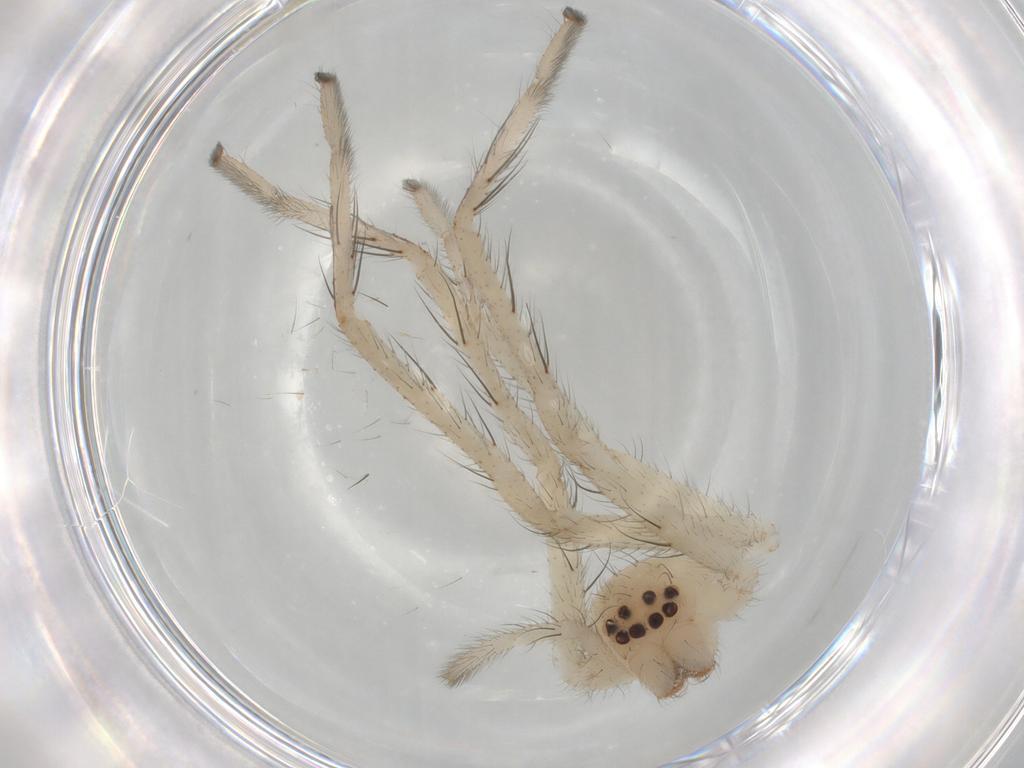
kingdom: Animalia
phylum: Arthropoda
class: Arachnida
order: Araneae
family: Sparassidae
